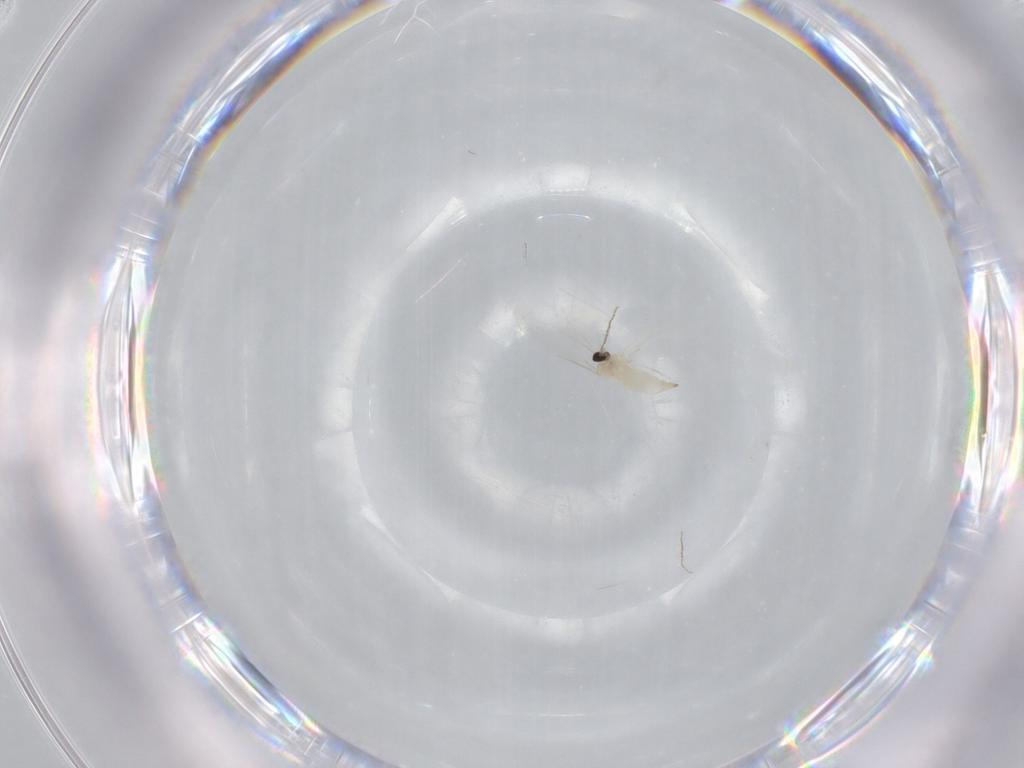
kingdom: Animalia
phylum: Arthropoda
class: Insecta
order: Diptera
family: Cecidomyiidae
